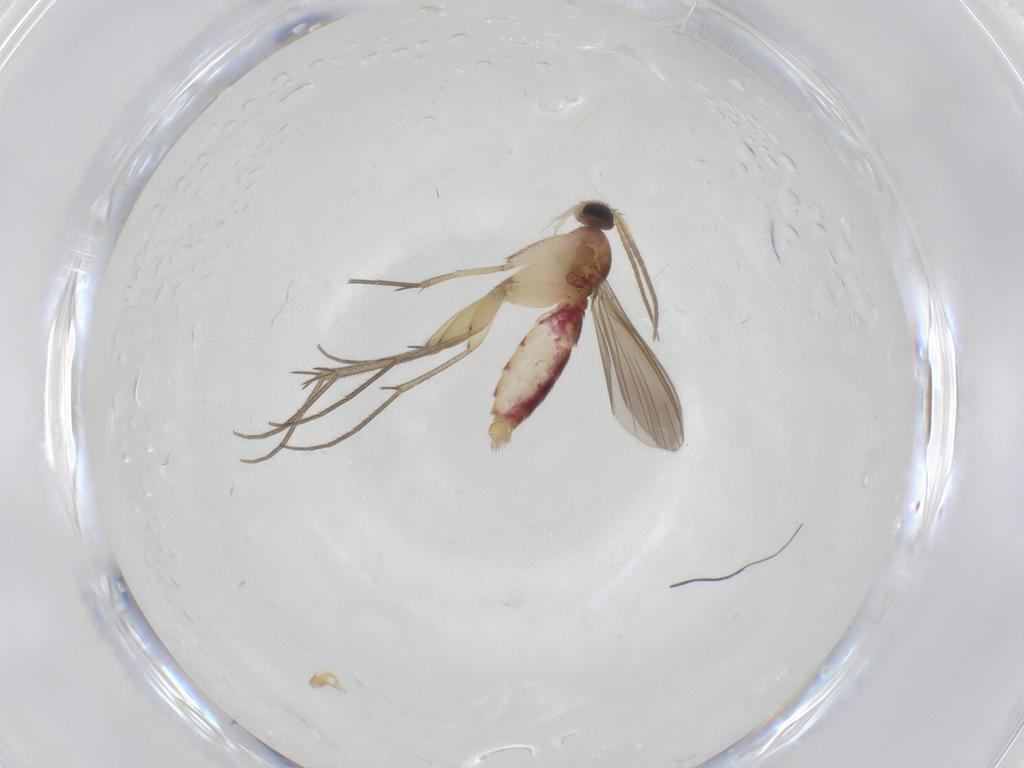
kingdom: Animalia
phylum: Arthropoda
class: Insecta
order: Diptera
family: Mycetophilidae
